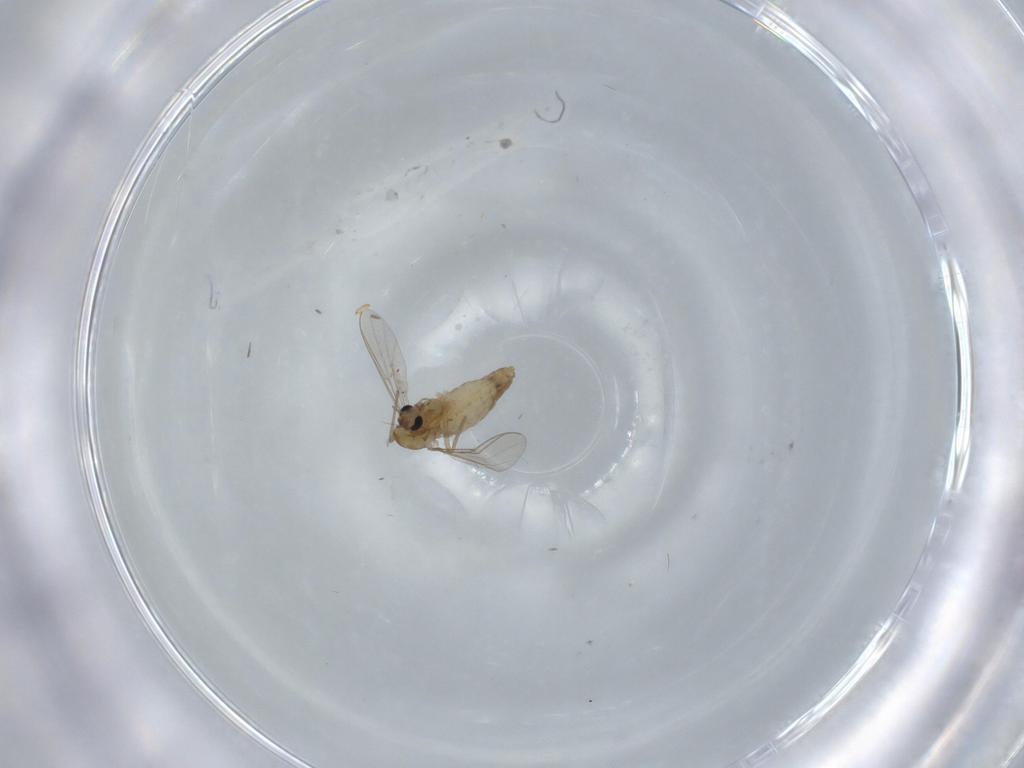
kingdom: Animalia
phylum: Arthropoda
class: Insecta
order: Diptera
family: Chironomidae
